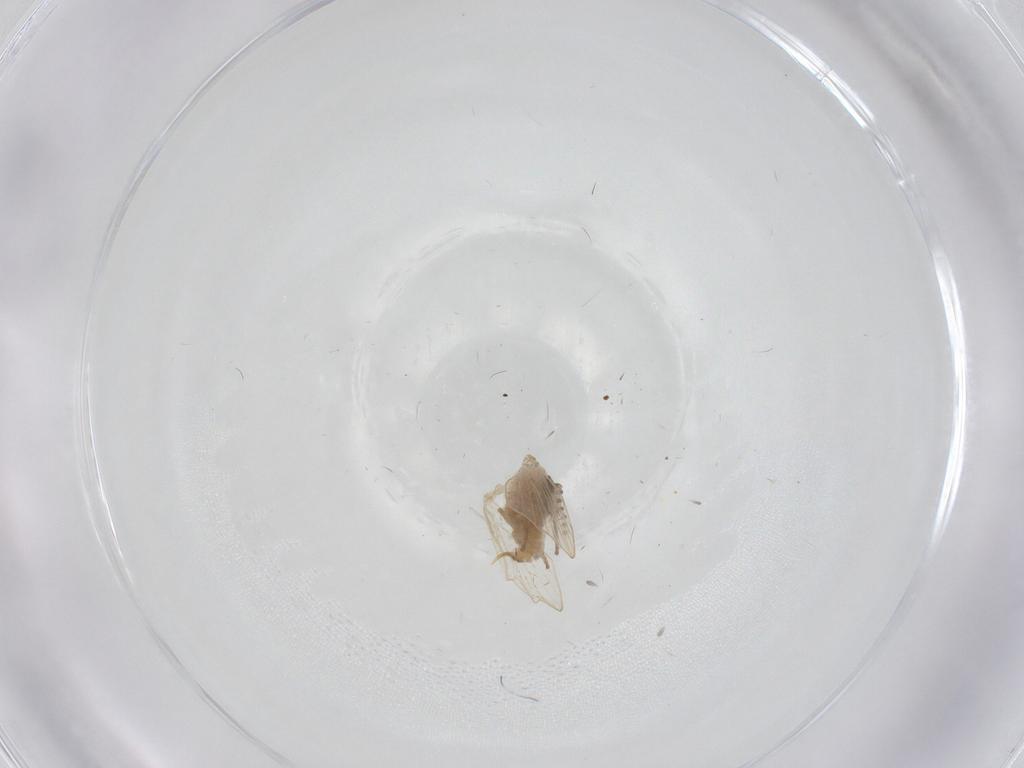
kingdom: Animalia
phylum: Arthropoda
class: Insecta
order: Diptera
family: Psychodidae
